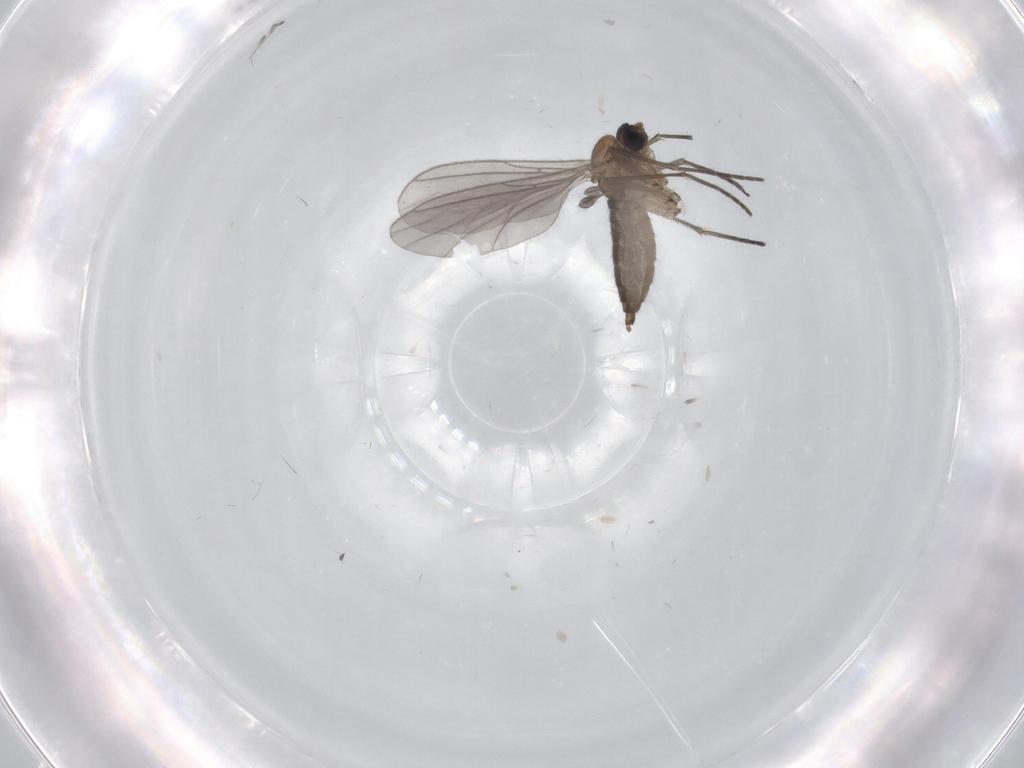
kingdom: Animalia
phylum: Arthropoda
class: Insecta
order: Diptera
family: Sciaridae
